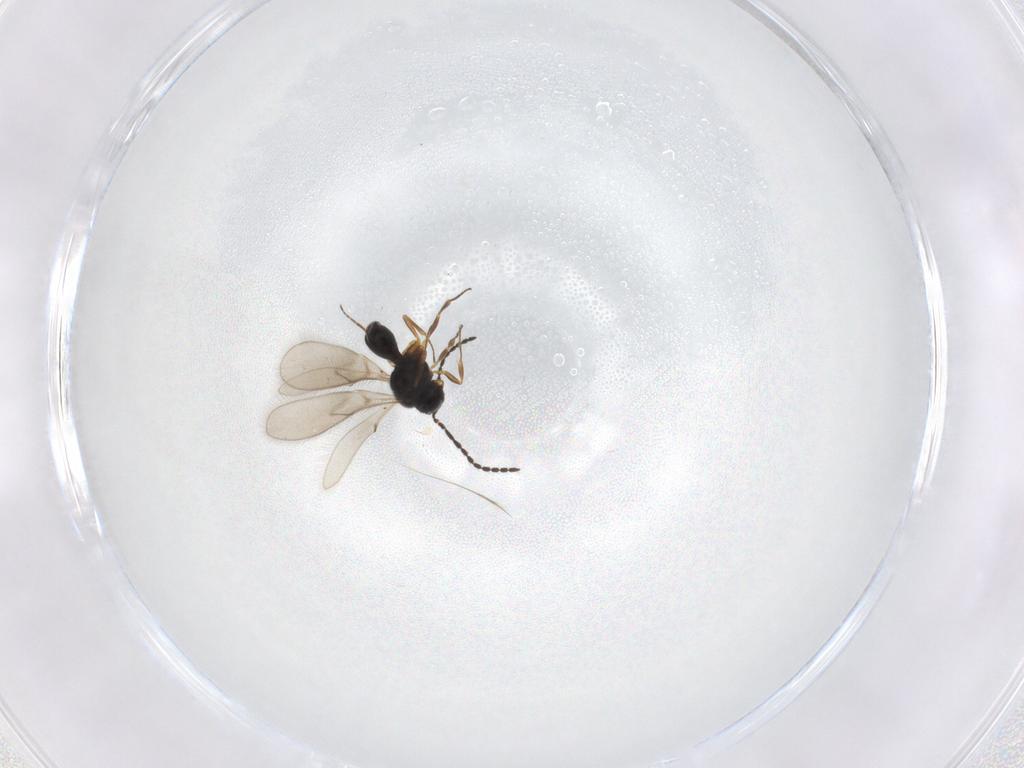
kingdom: Animalia
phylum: Arthropoda
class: Insecta
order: Hymenoptera
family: Scelionidae
